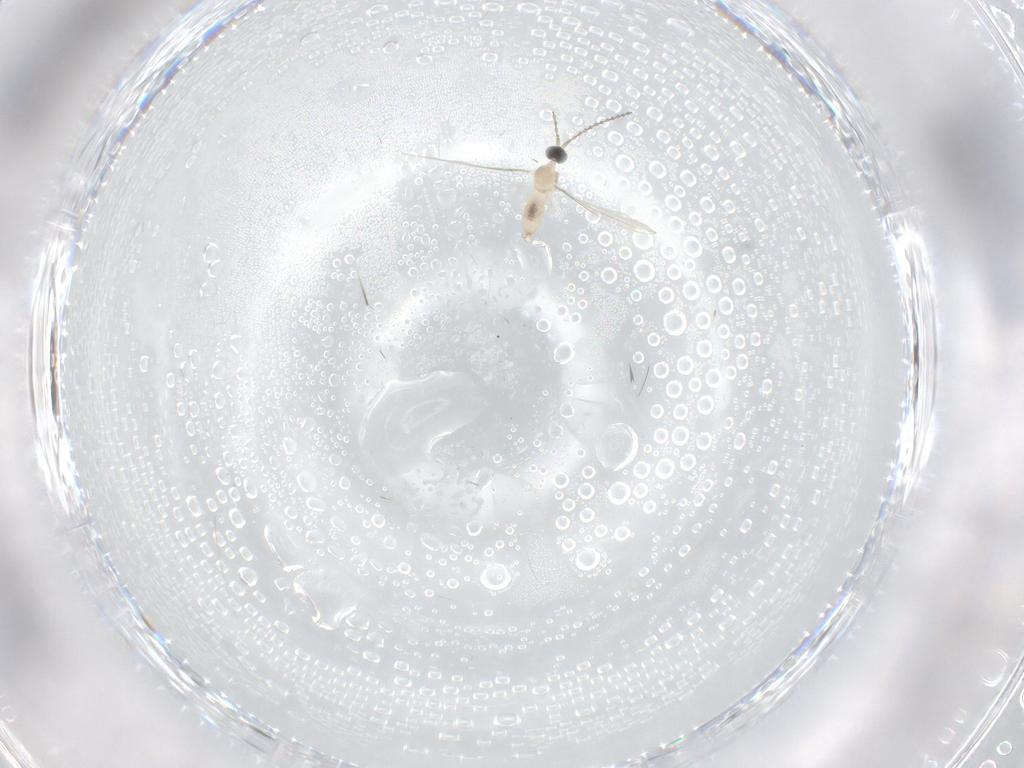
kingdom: Animalia
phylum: Arthropoda
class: Insecta
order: Diptera
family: Cecidomyiidae
